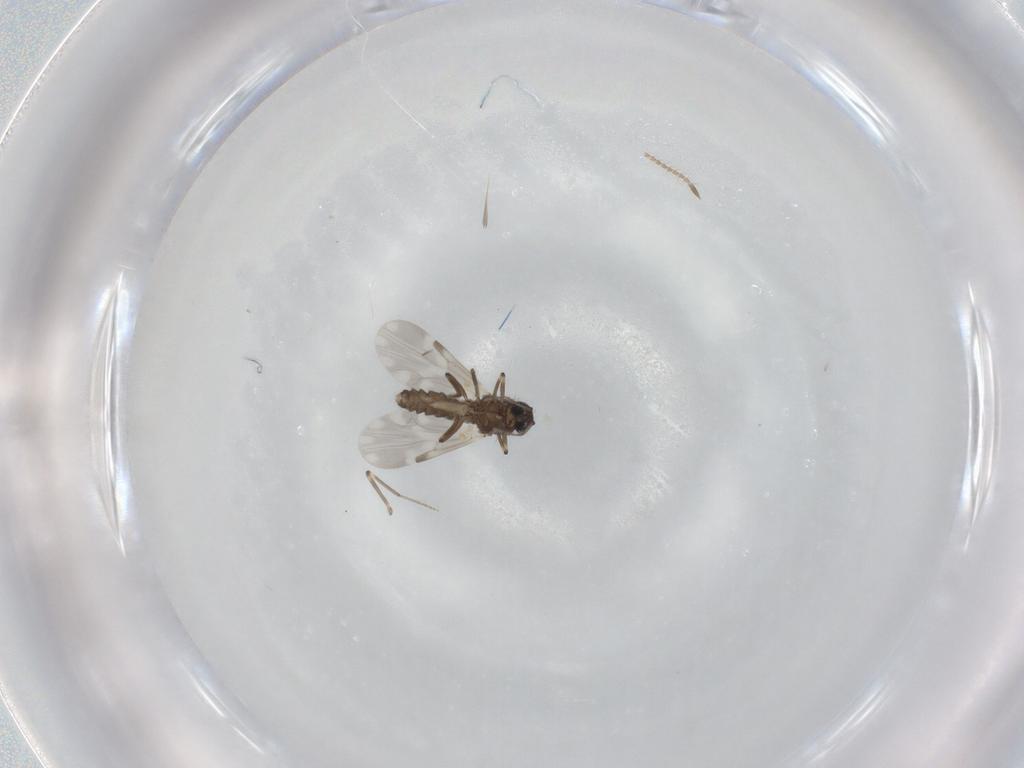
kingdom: Animalia
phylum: Arthropoda
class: Insecta
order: Diptera
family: Ceratopogonidae
